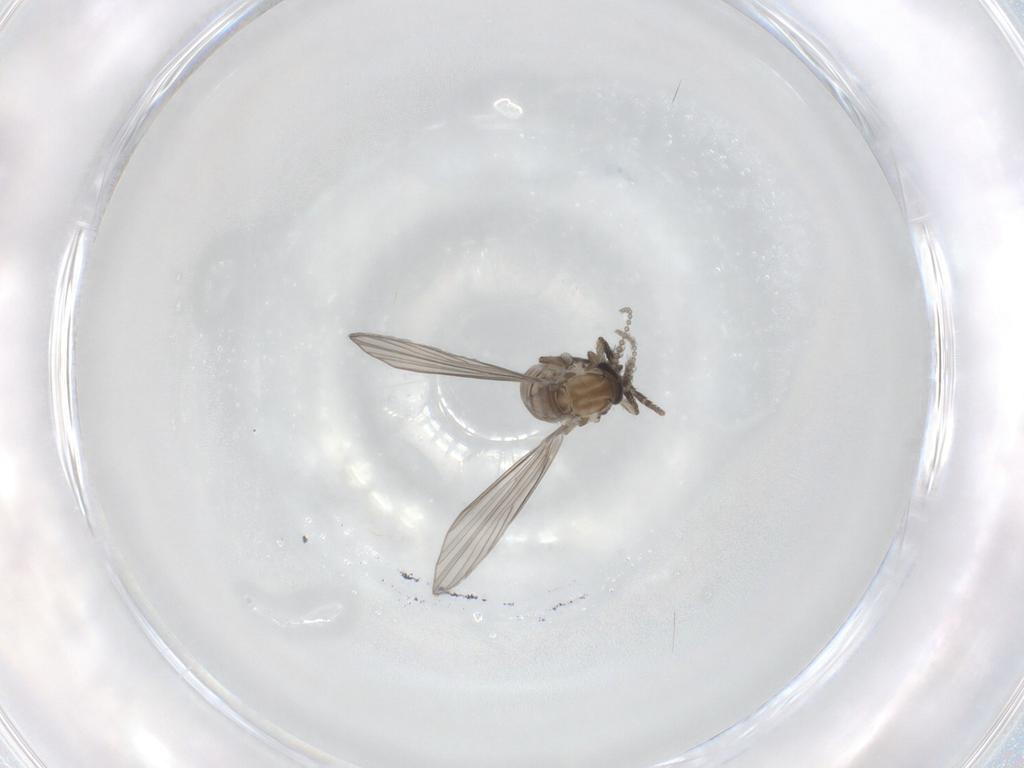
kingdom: Animalia
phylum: Arthropoda
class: Insecta
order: Diptera
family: Psychodidae
